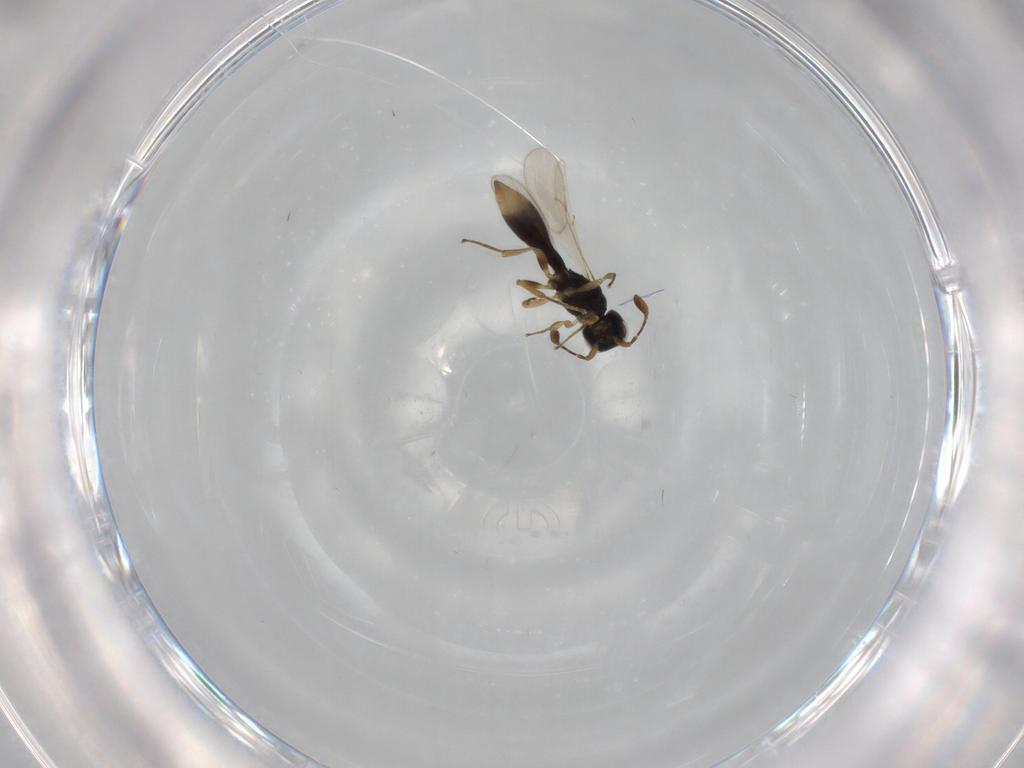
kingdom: Animalia
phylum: Arthropoda
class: Insecta
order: Hymenoptera
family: Scelionidae
